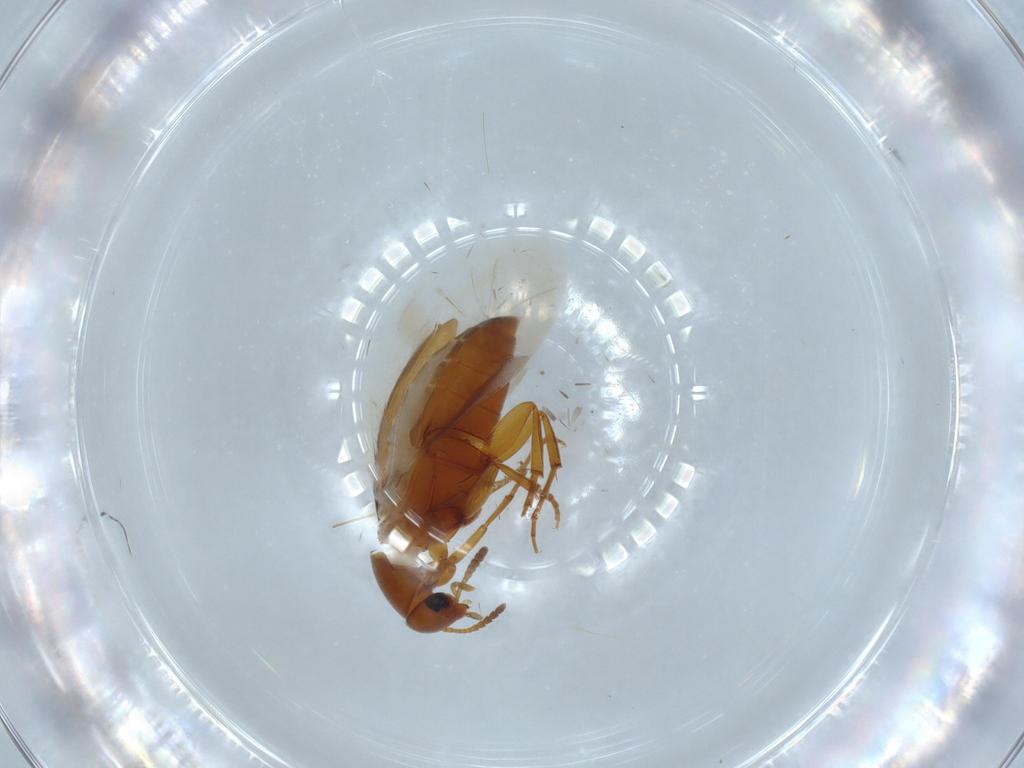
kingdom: Animalia
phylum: Arthropoda
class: Insecta
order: Coleoptera
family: Scraptiidae
